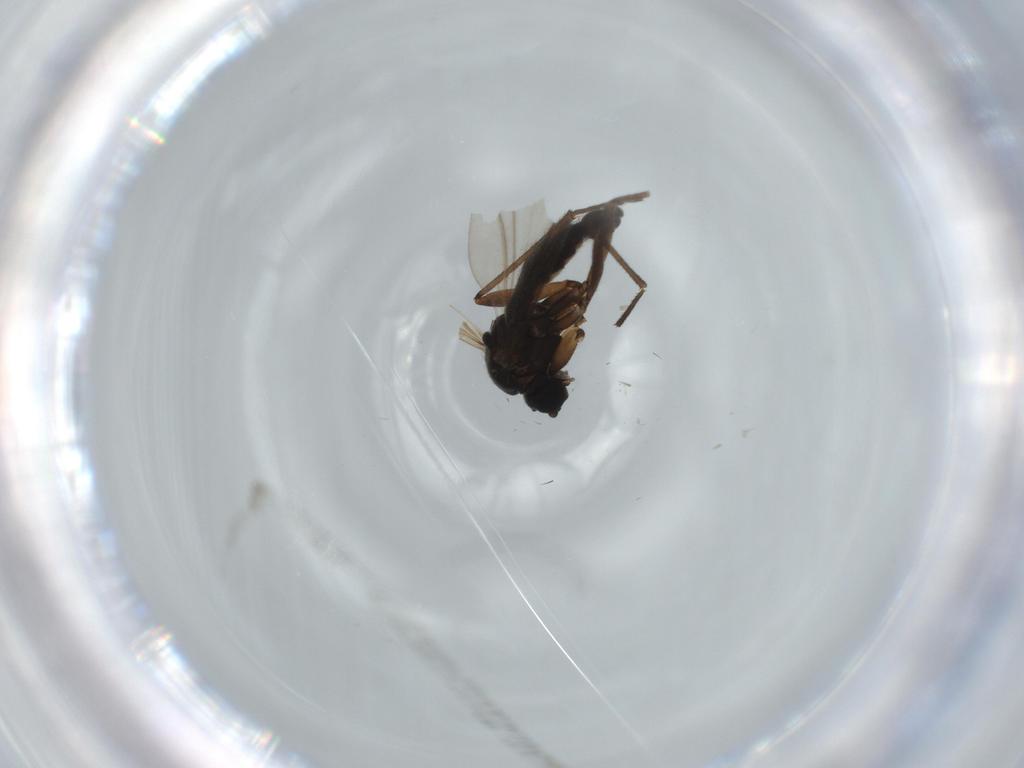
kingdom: Animalia
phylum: Arthropoda
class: Insecta
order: Diptera
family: Sciaridae
